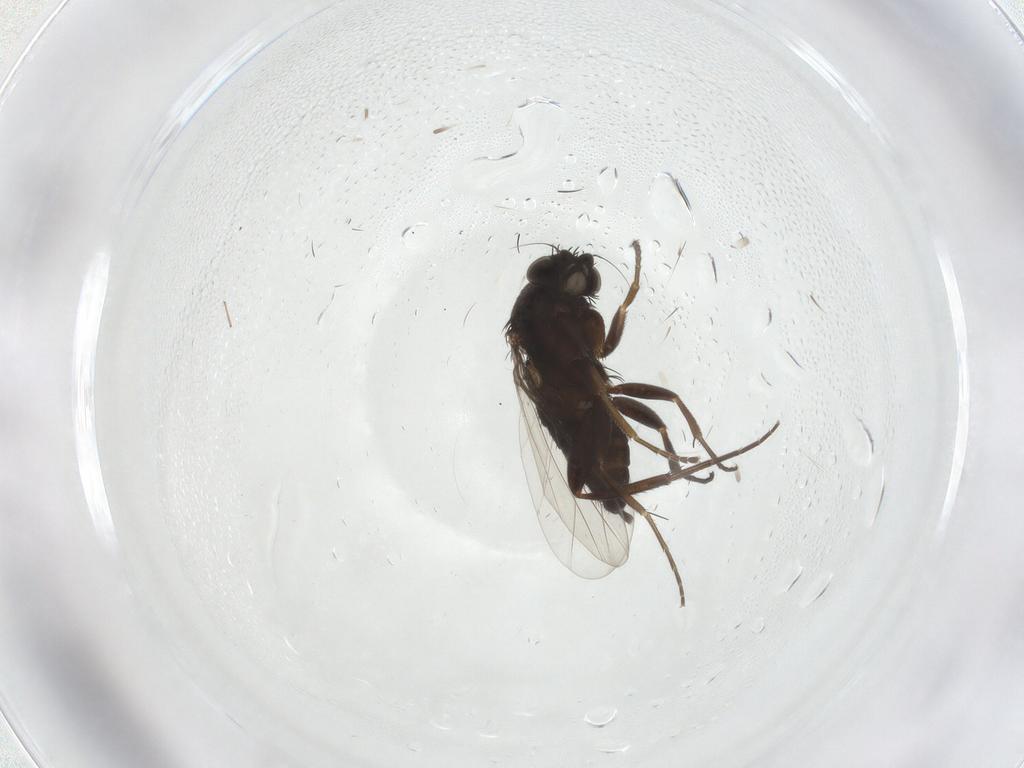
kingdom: Animalia
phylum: Arthropoda
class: Insecta
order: Diptera
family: Phoridae
